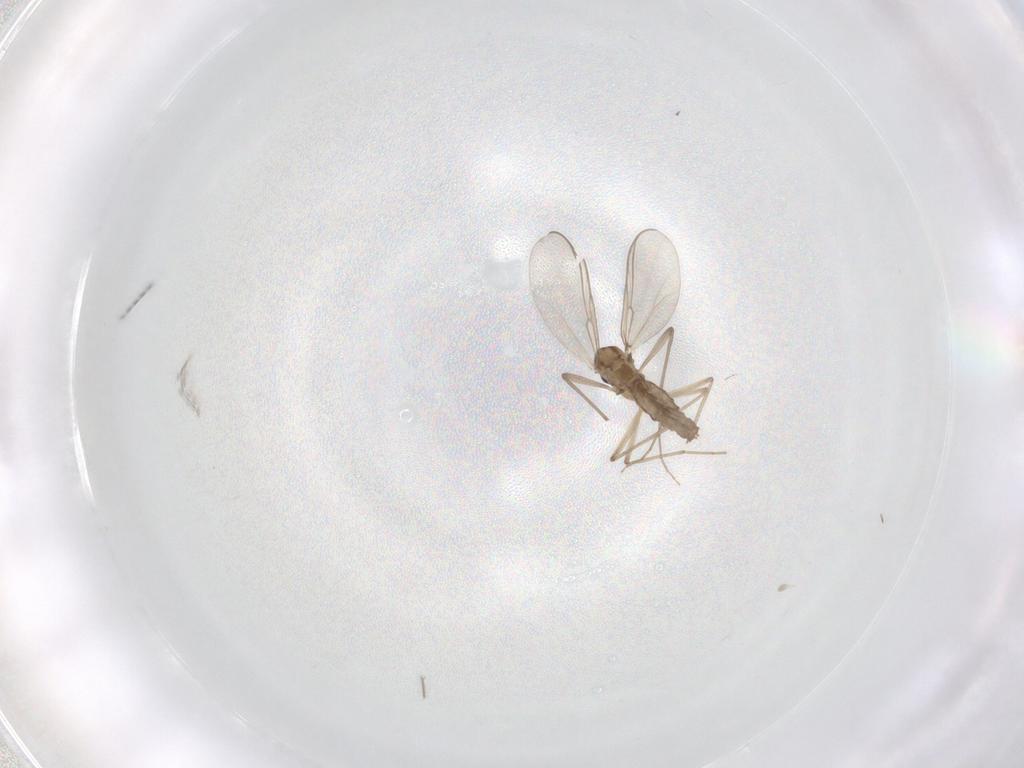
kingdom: Animalia
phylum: Arthropoda
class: Insecta
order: Diptera
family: Chironomidae
